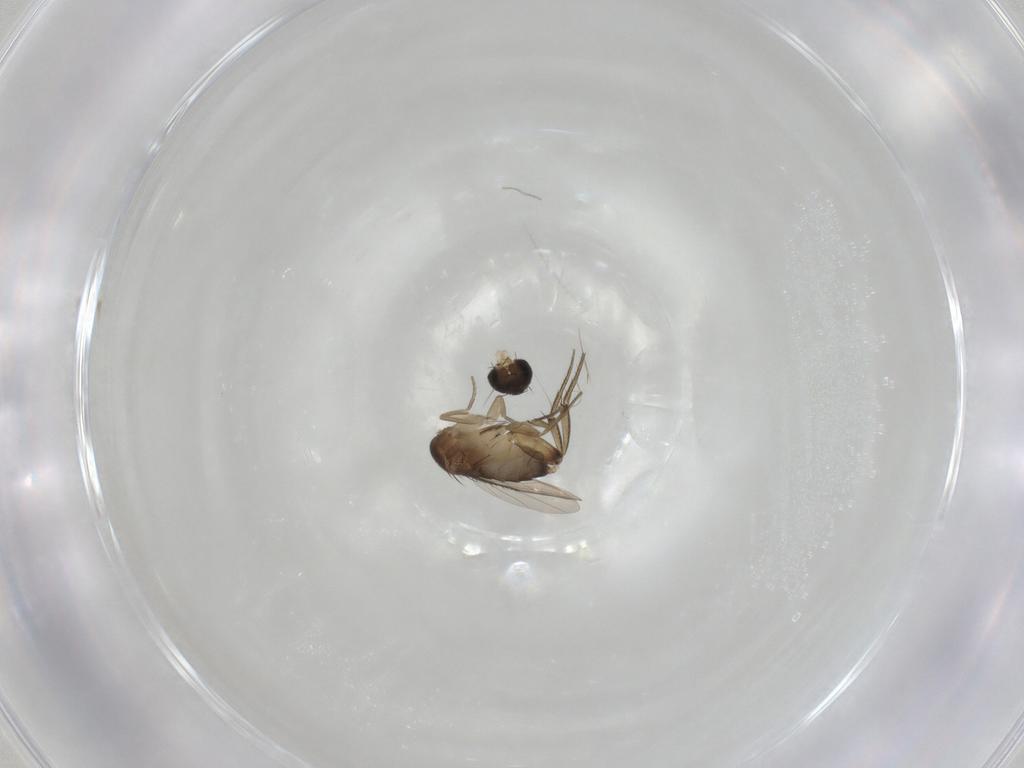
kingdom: Animalia
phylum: Arthropoda
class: Insecta
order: Diptera
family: Phoridae
